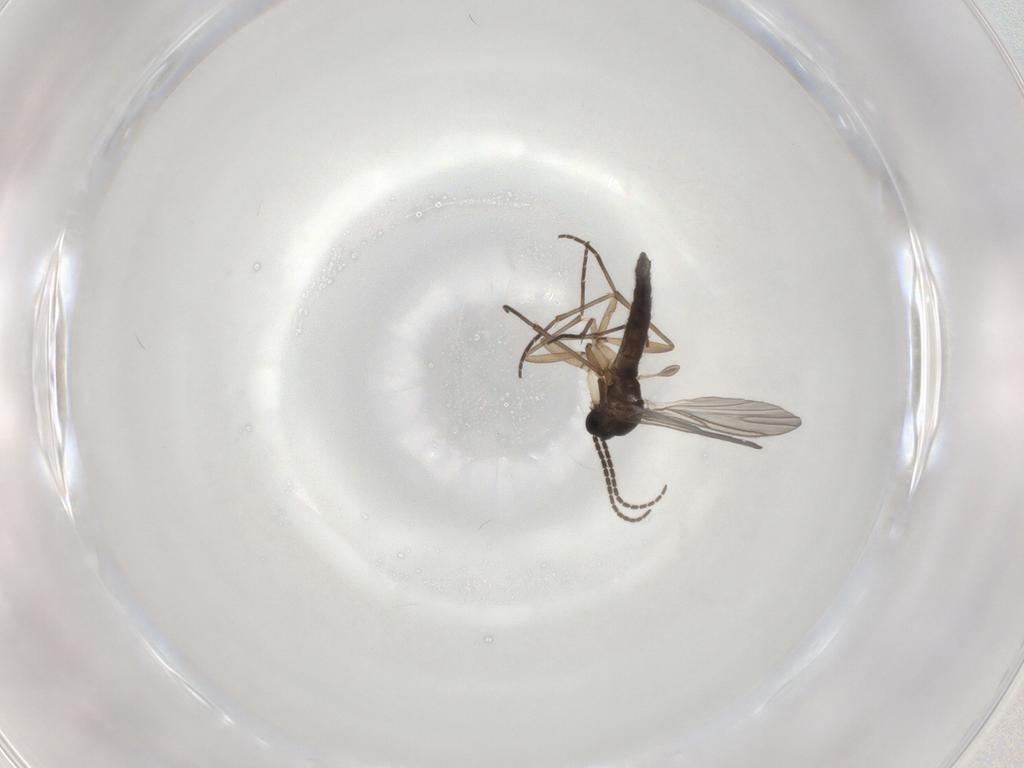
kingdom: Animalia
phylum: Arthropoda
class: Insecta
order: Diptera
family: Sciaridae
